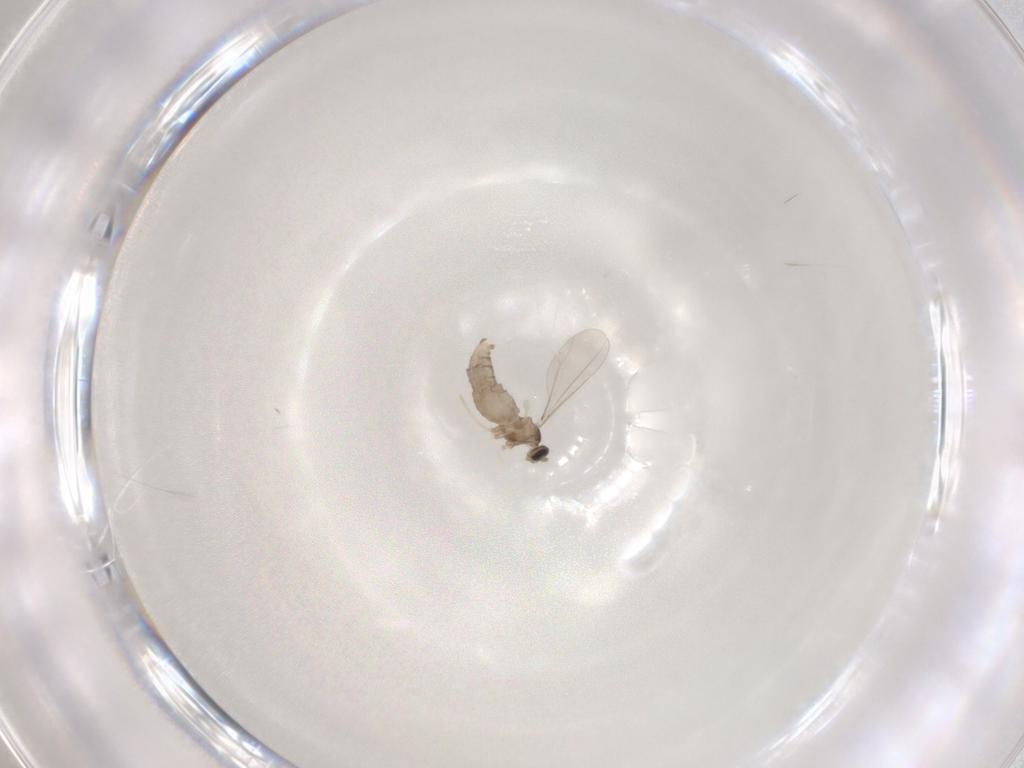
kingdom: Animalia
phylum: Arthropoda
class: Insecta
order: Diptera
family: Cecidomyiidae
